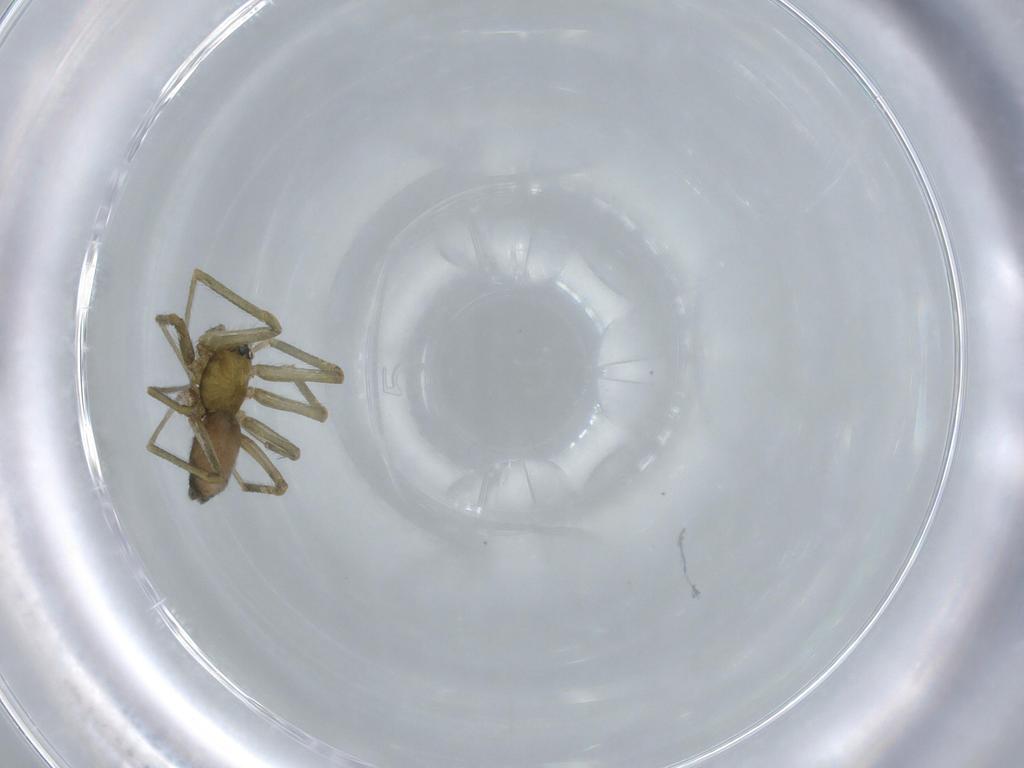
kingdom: Animalia
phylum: Arthropoda
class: Arachnida
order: Araneae
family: Linyphiidae
